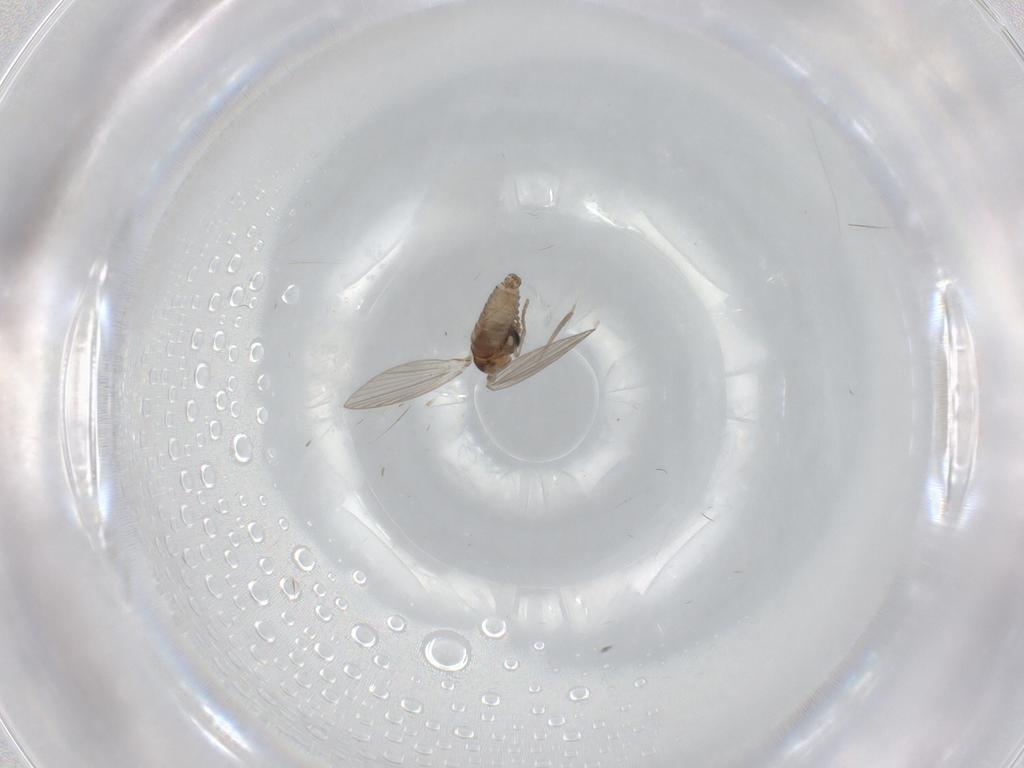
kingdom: Animalia
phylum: Arthropoda
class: Insecta
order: Diptera
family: Psychodidae
